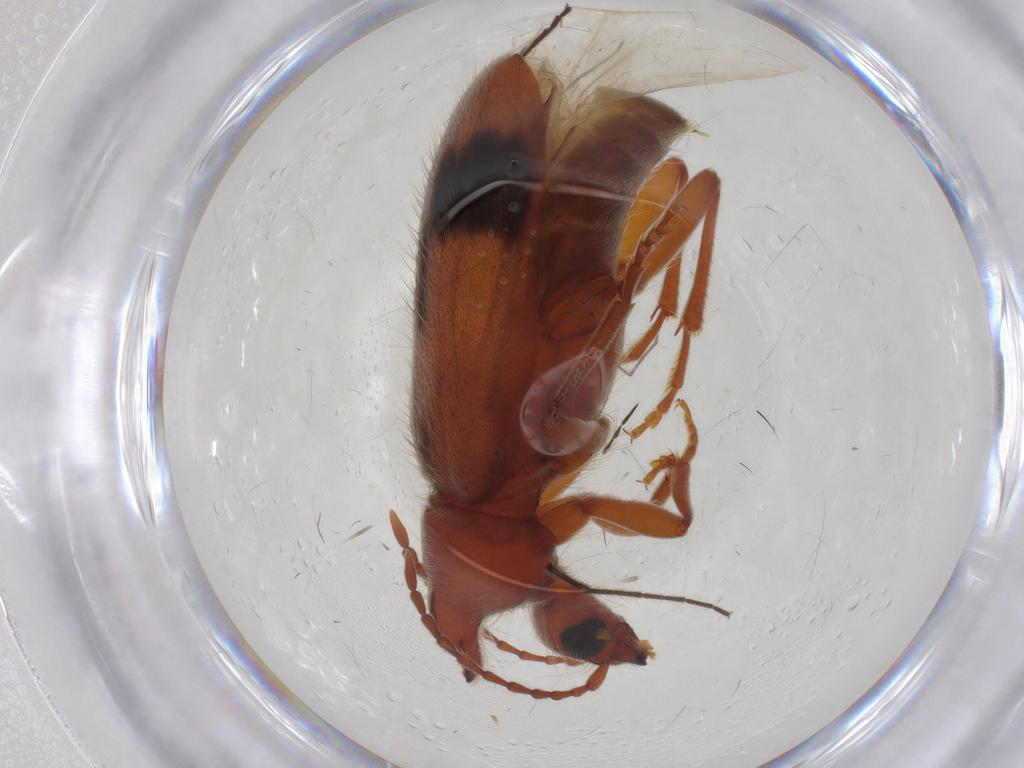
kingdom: Animalia
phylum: Arthropoda
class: Insecta
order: Coleoptera
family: Anthicidae
